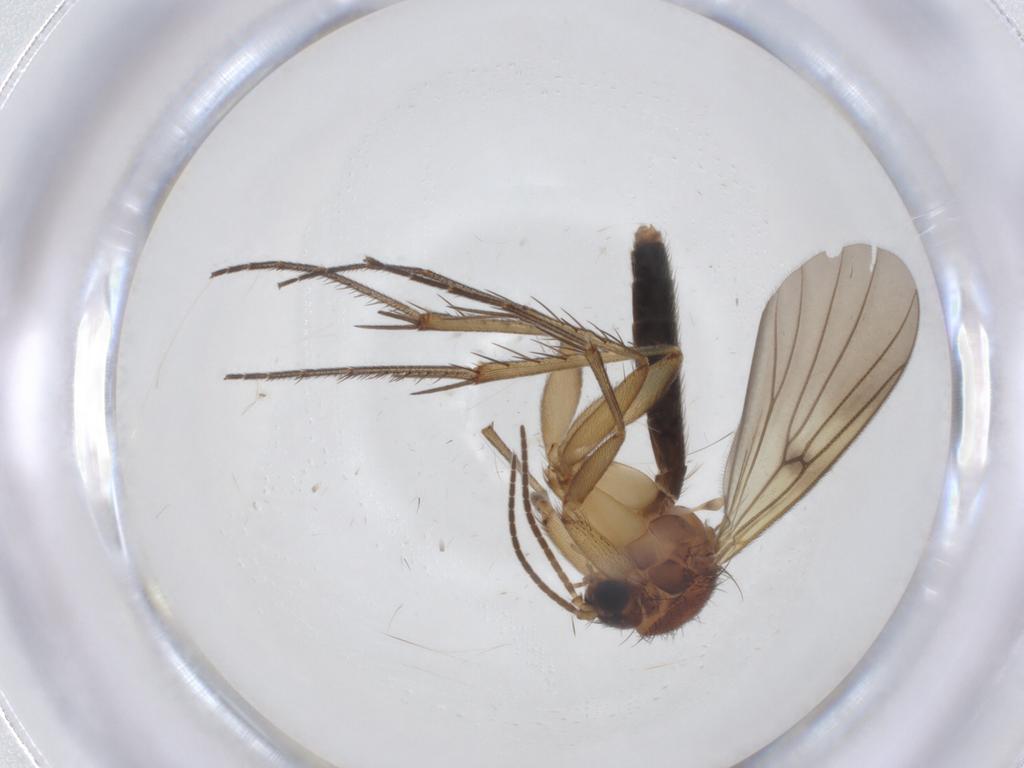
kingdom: Animalia
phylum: Arthropoda
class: Insecta
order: Diptera
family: Mycetophilidae
